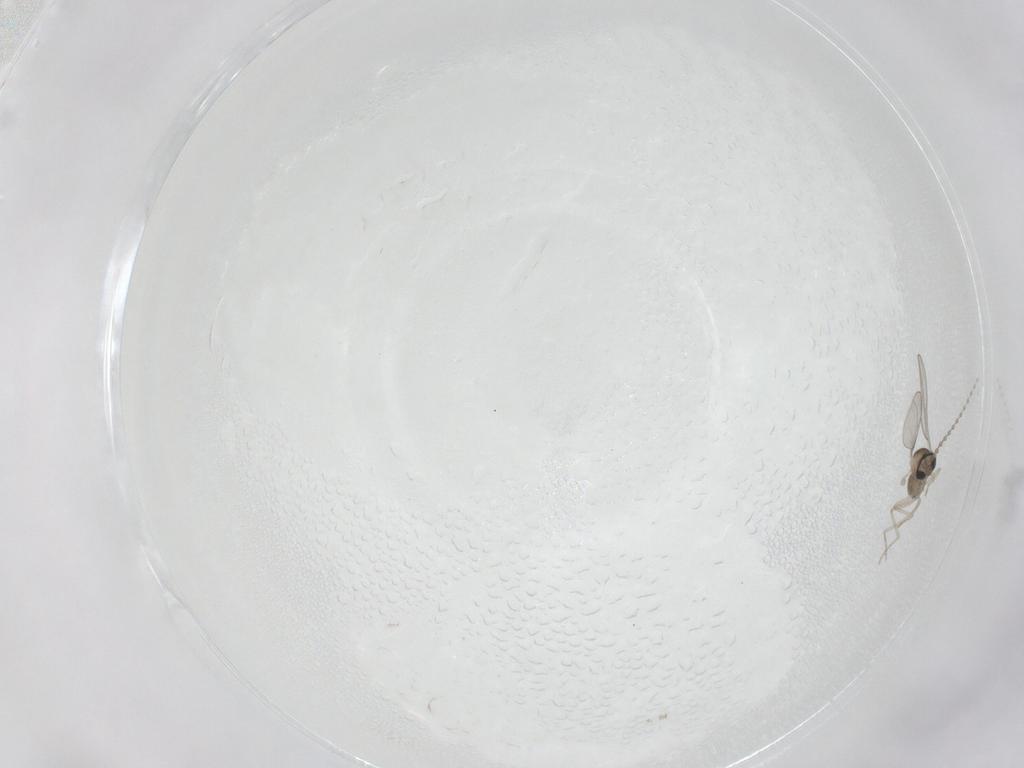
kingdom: Animalia
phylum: Arthropoda
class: Insecta
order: Diptera
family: Cecidomyiidae
